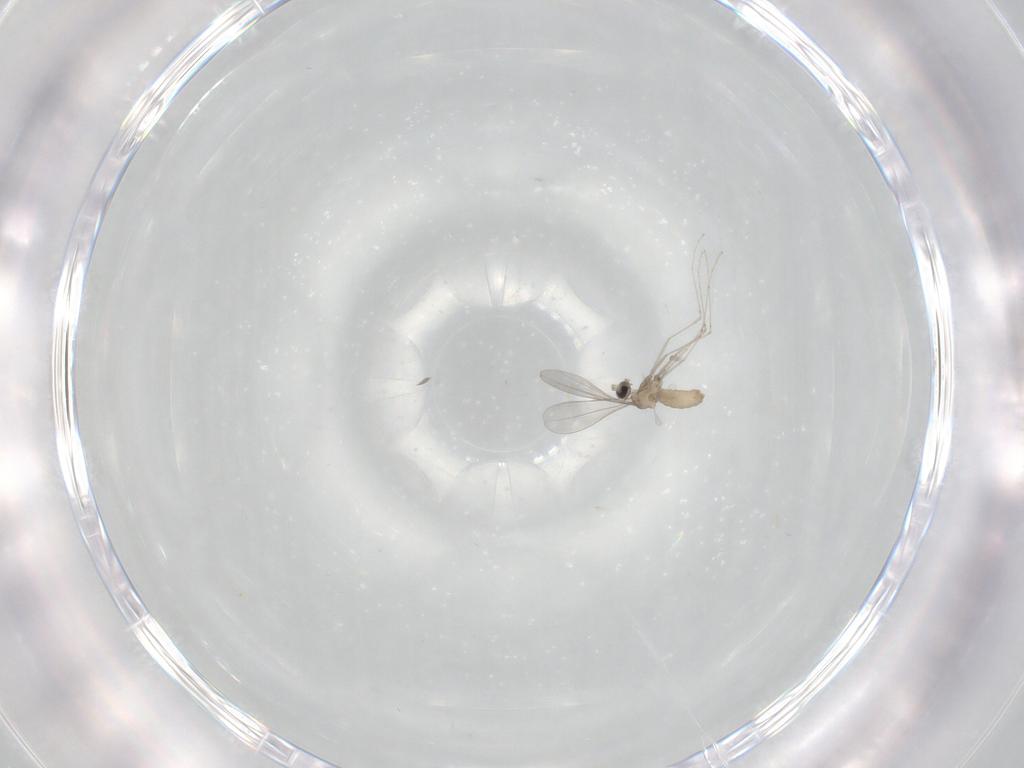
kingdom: Animalia
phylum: Arthropoda
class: Insecta
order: Diptera
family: Cecidomyiidae
